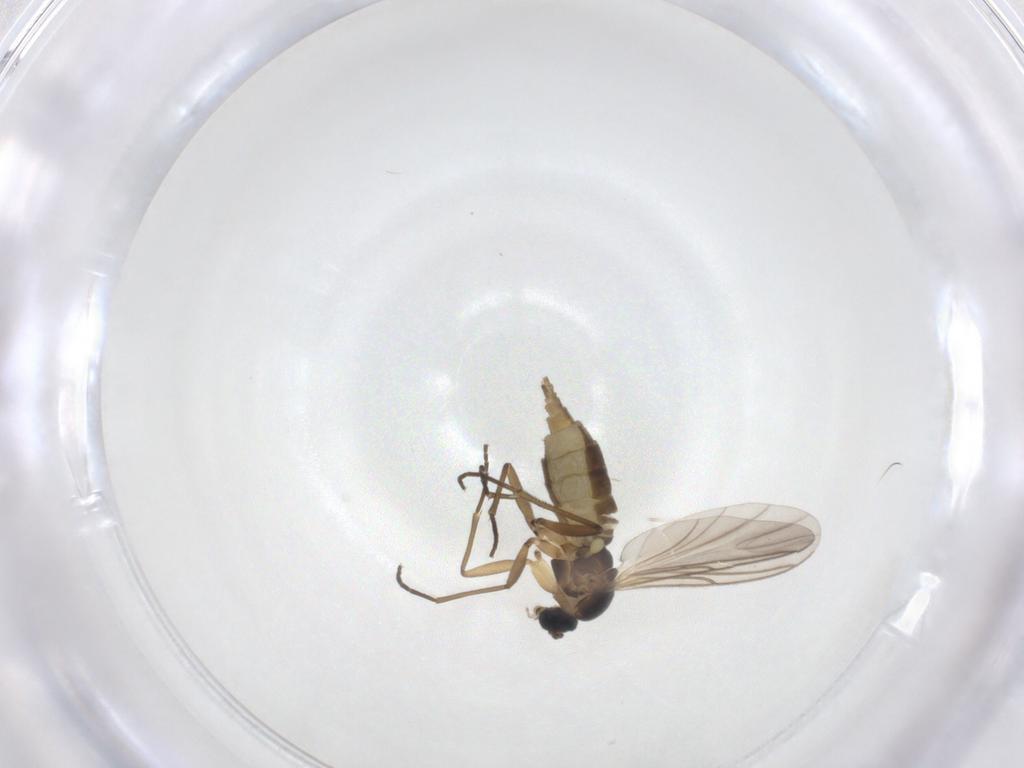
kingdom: Animalia
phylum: Arthropoda
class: Insecta
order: Diptera
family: Ceratopogonidae
